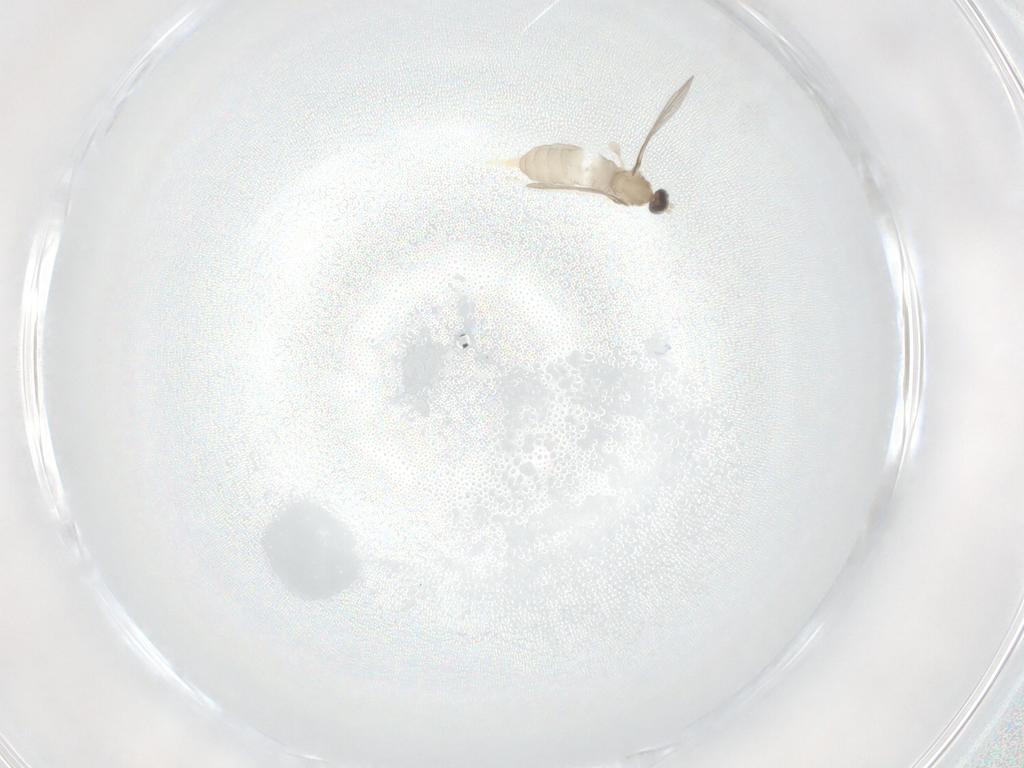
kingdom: Animalia
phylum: Arthropoda
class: Insecta
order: Diptera
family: Cecidomyiidae
